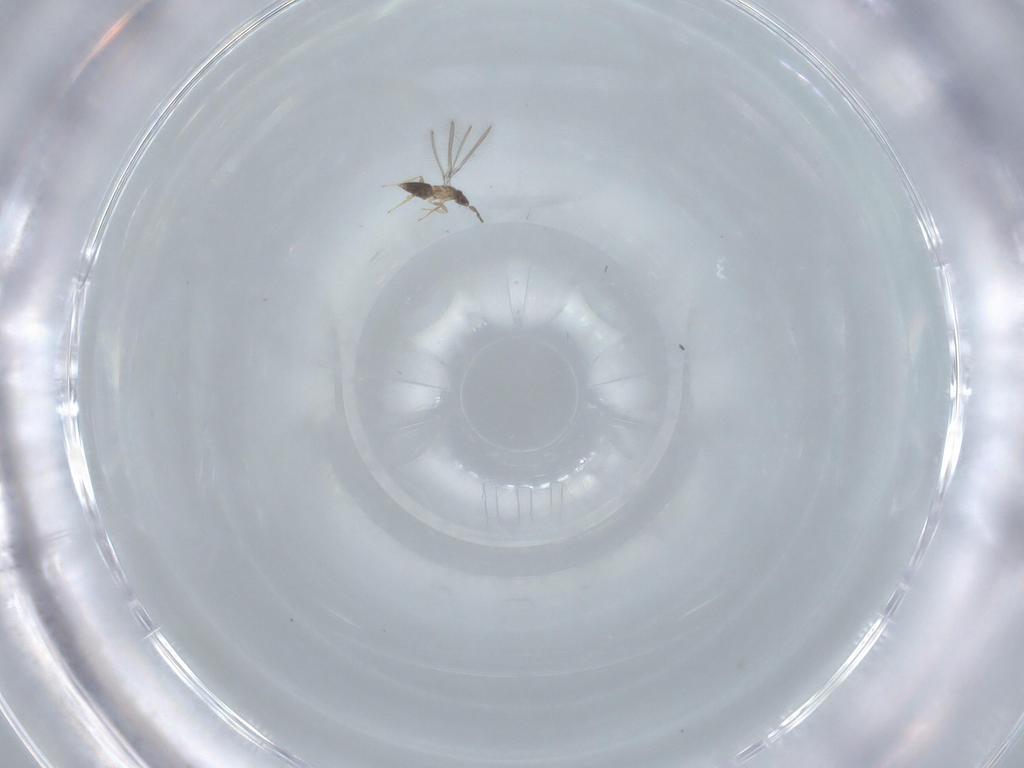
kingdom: Animalia
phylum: Arthropoda
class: Insecta
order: Hymenoptera
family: Mymaridae
